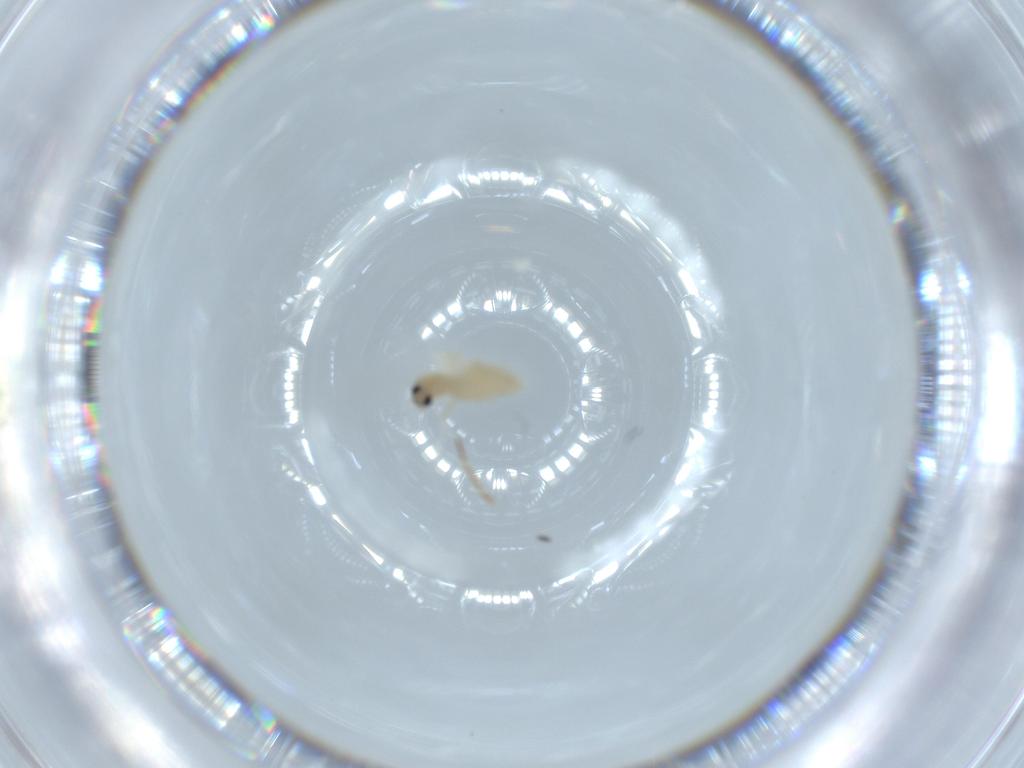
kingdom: Animalia
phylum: Arthropoda
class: Insecta
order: Diptera
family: Cecidomyiidae
